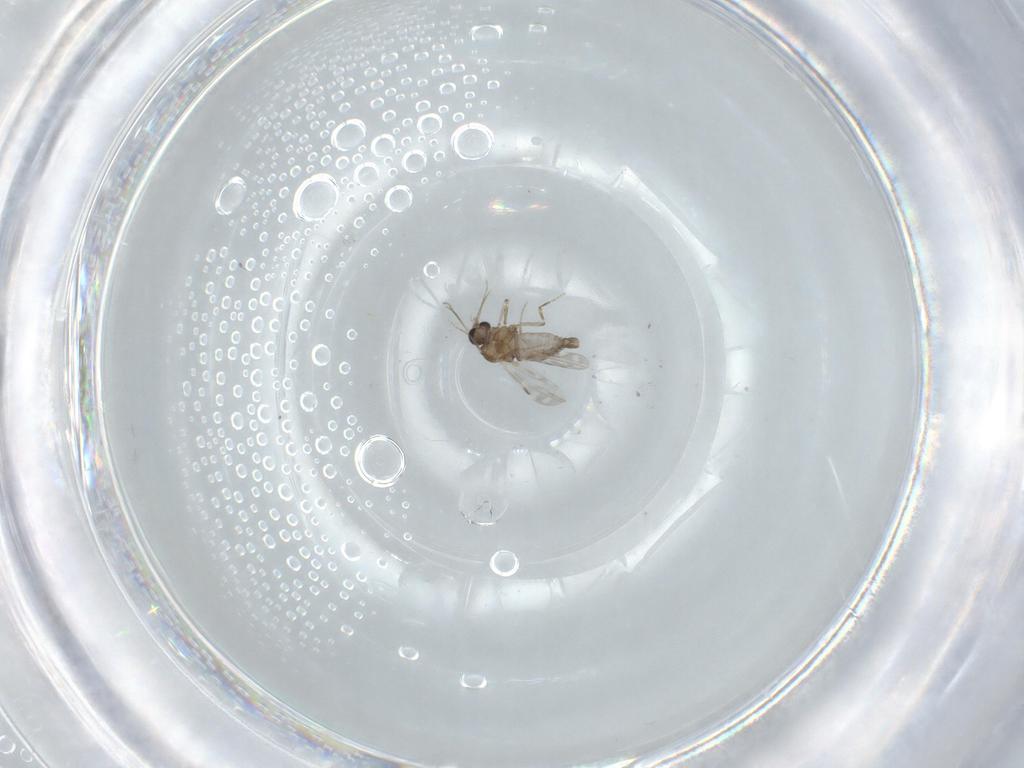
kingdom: Animalia
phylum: Arthropoda
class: Insecta
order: Diptera
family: Ceratopogonidae
